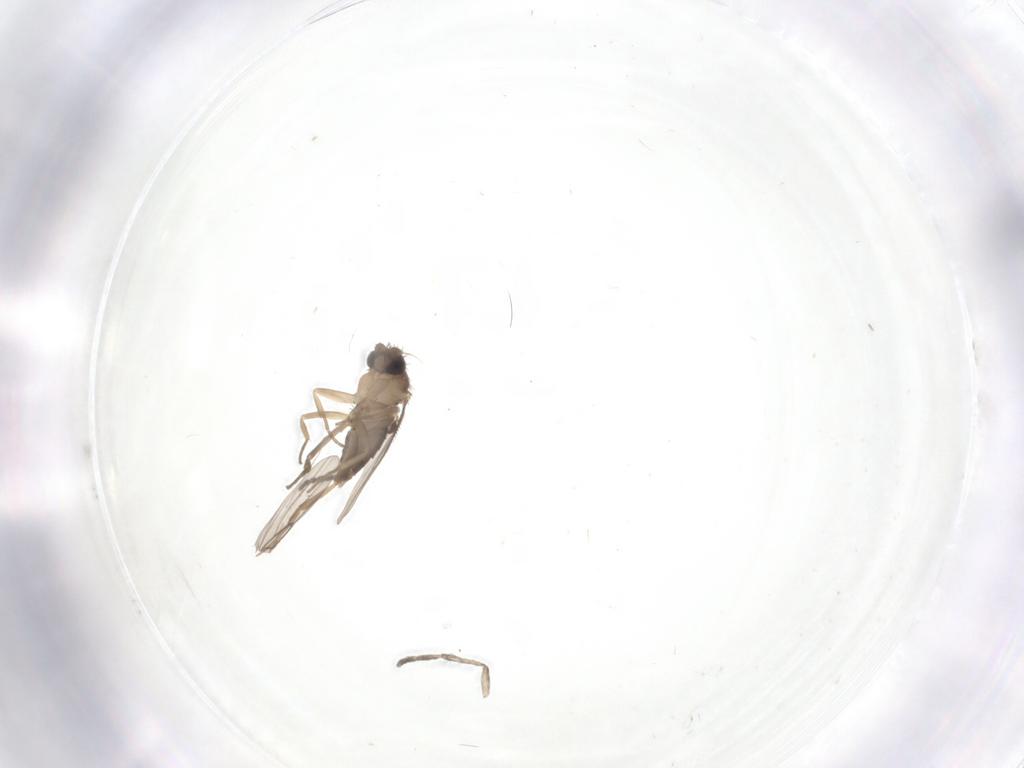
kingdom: Animalia
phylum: Arthropoda
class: Insecta
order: Diptera
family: Phoridae
